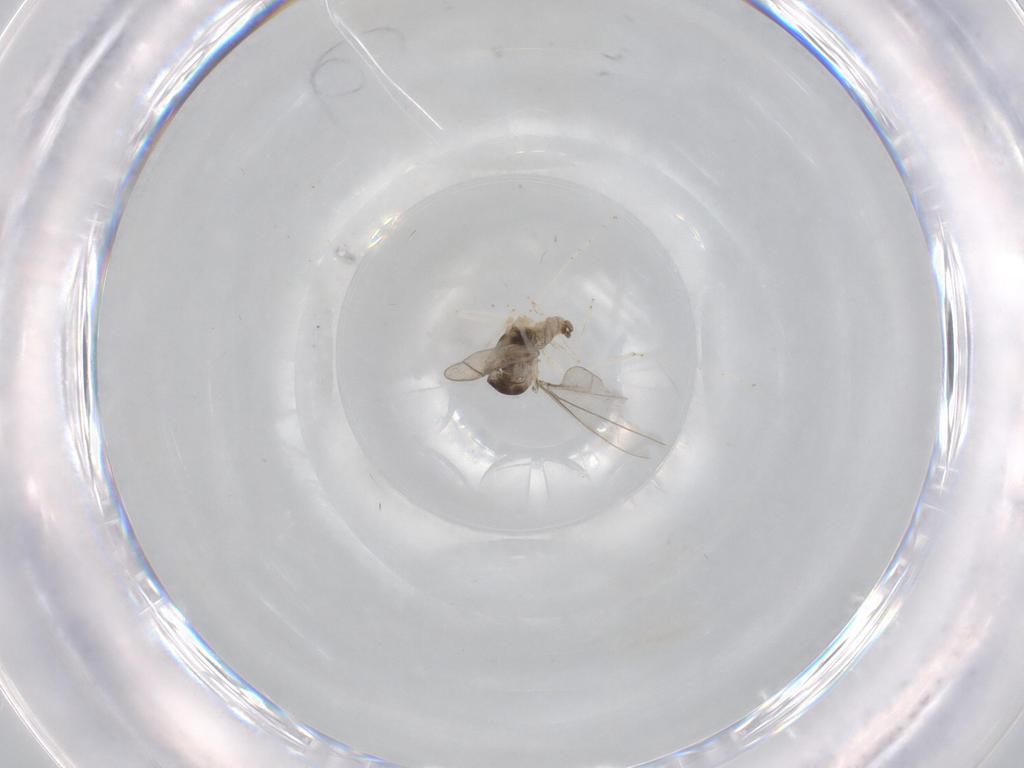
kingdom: Animalia
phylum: Arthropoda
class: Insecta
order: Diptera
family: Cecidomyiidae
